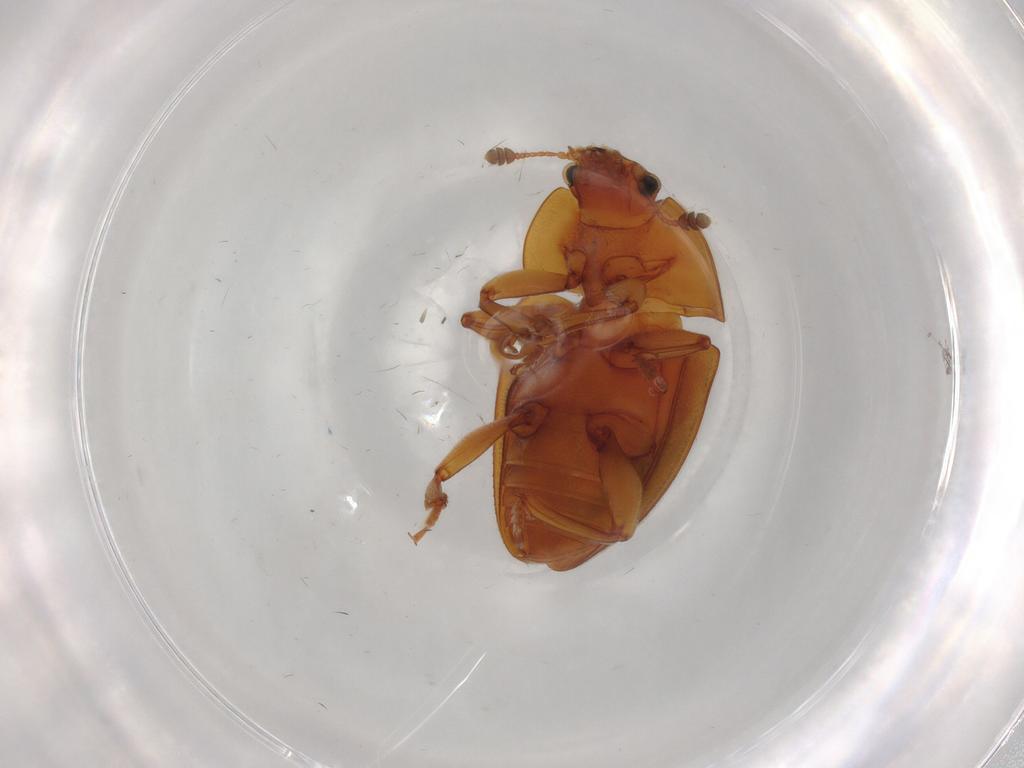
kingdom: Animalia
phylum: Arthropoda
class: Insecta
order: Coleoptera
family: Nitidulidae
